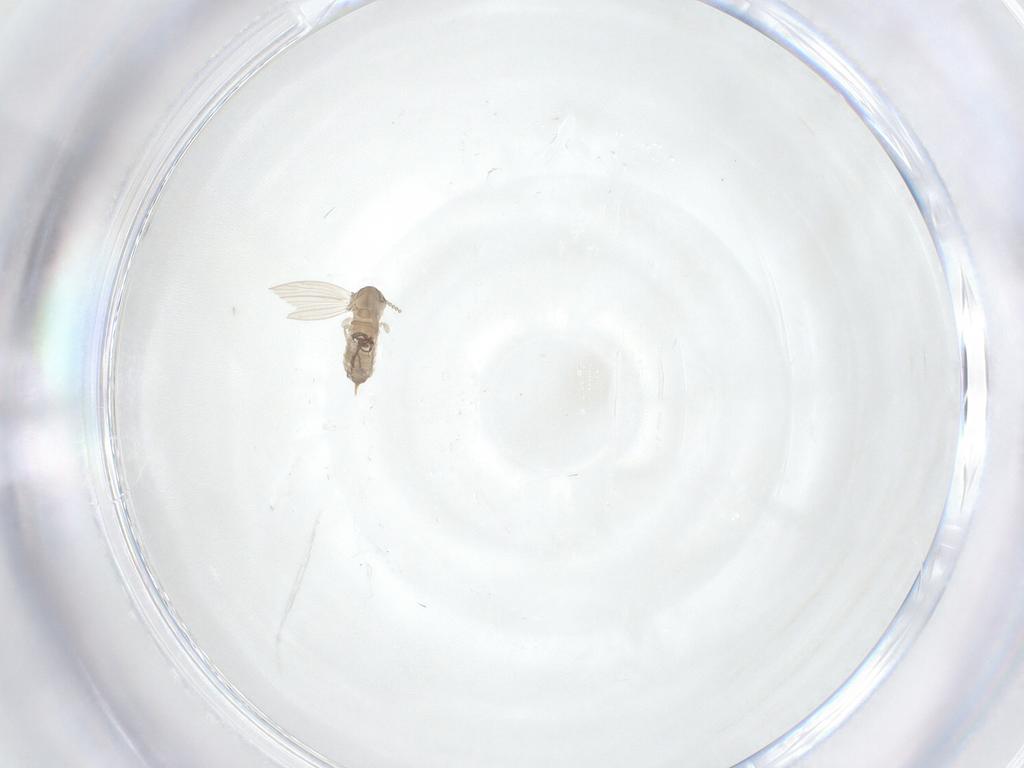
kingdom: Animalia
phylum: Arthropoda
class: Insecta
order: Diptera
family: Psychodidae
